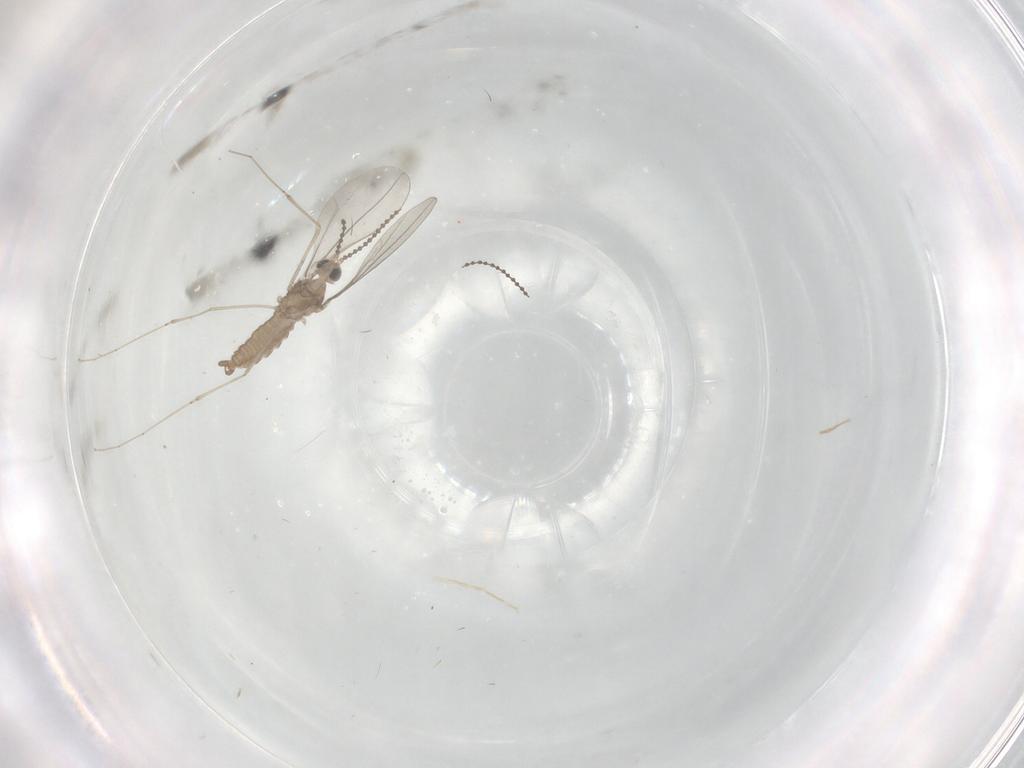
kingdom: Animalia
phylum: Arthropoda
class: Insecta
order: Diptera
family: Cecidomyiidae
